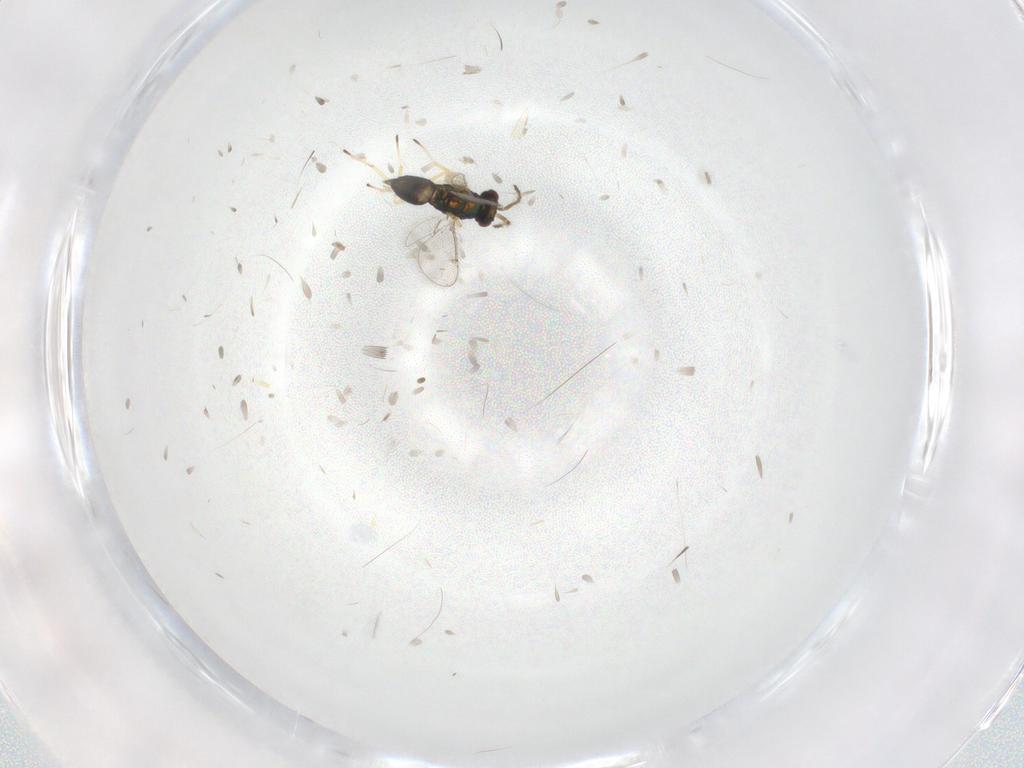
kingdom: Animalia
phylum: Arthropoda
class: Insecta
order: Hymenoptera
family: Eulophidae
